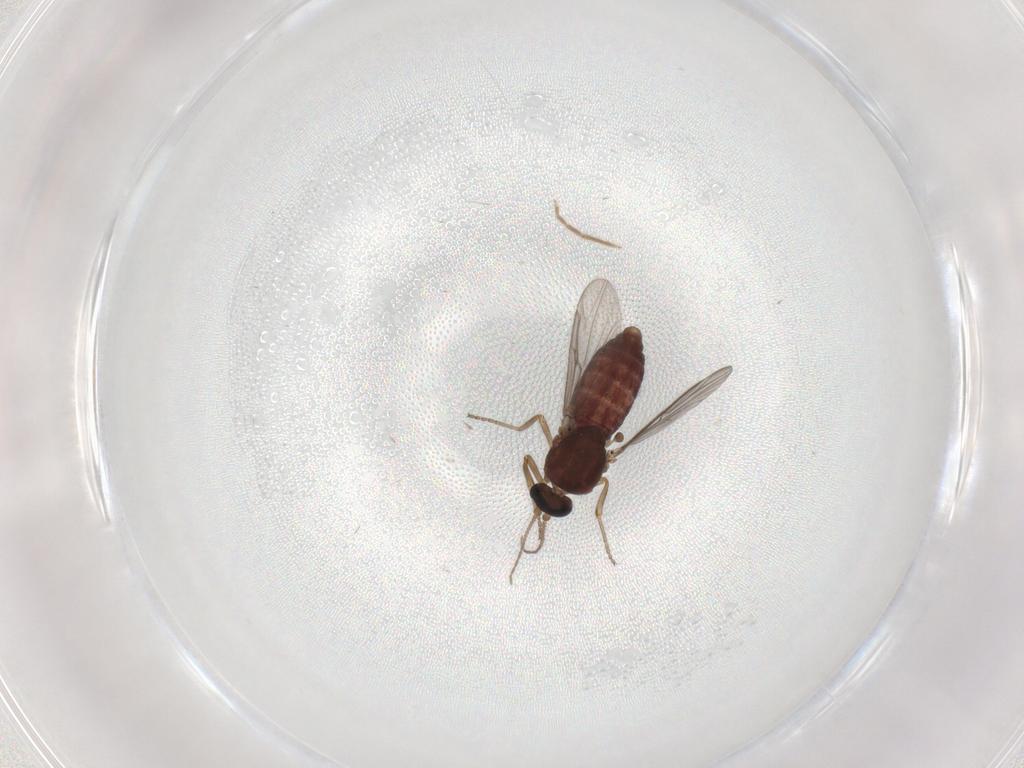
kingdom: Animalia
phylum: Arthropoda
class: Insecta
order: Diptera
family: Ceratopogonidae
